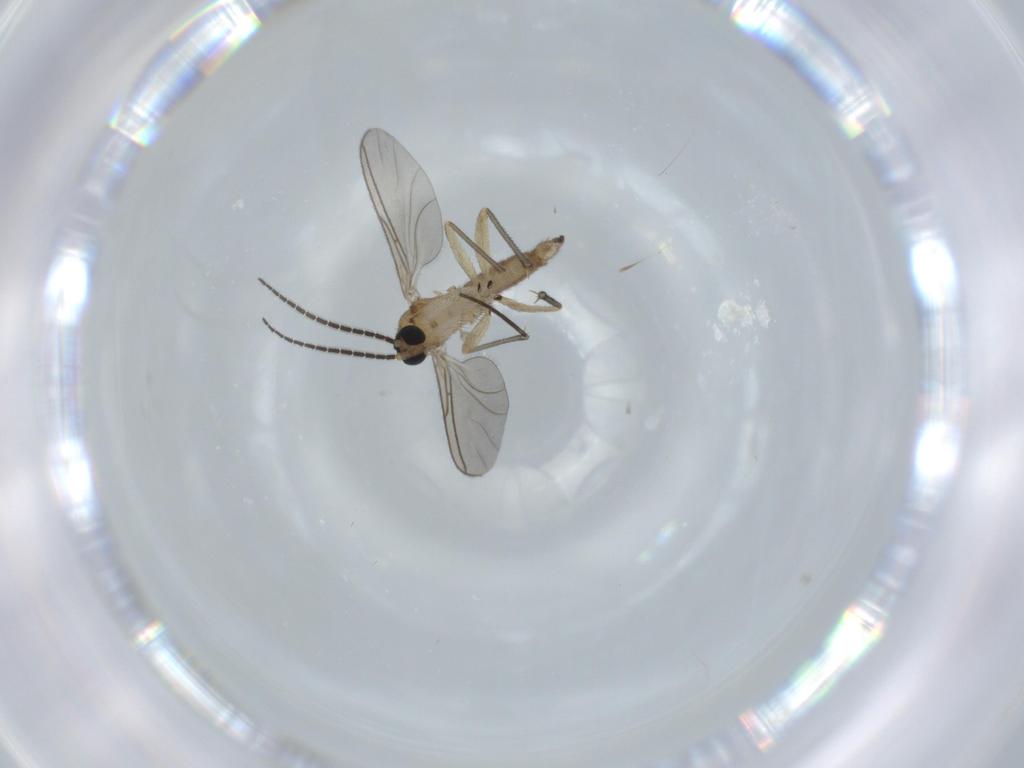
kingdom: Animalia
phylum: Arthropoda
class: Insecta
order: Diptera
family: Sciaridae
